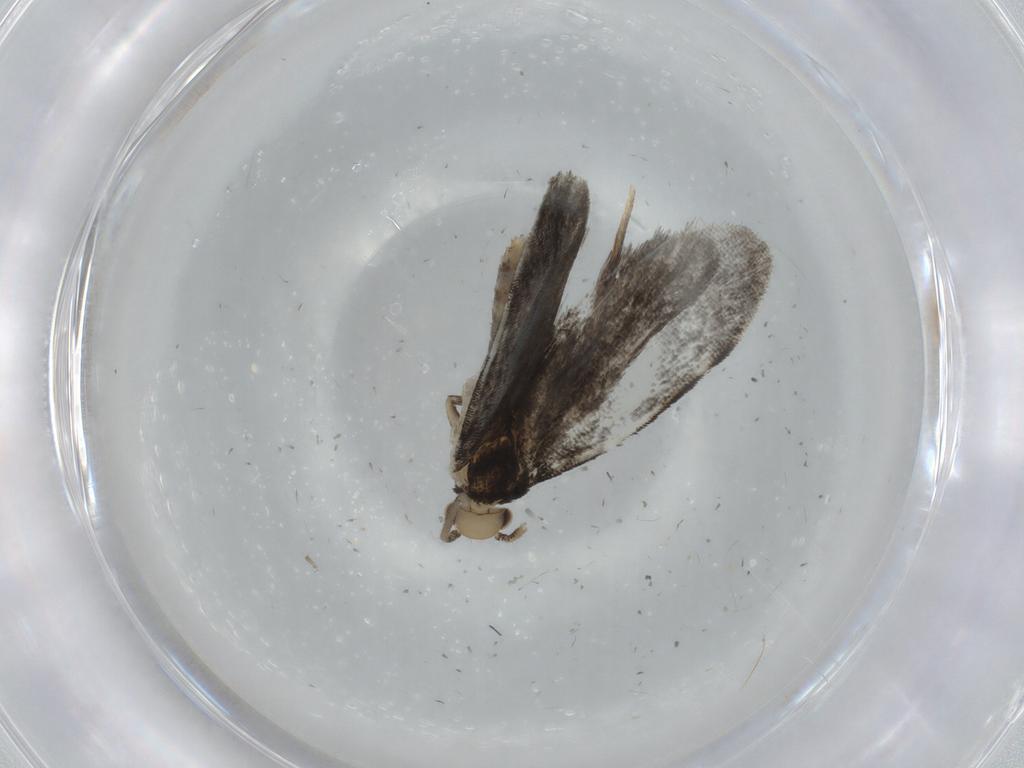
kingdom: Animalia
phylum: Arthropoda
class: Insecta
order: Lepidoptera
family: Dryadaulidae
